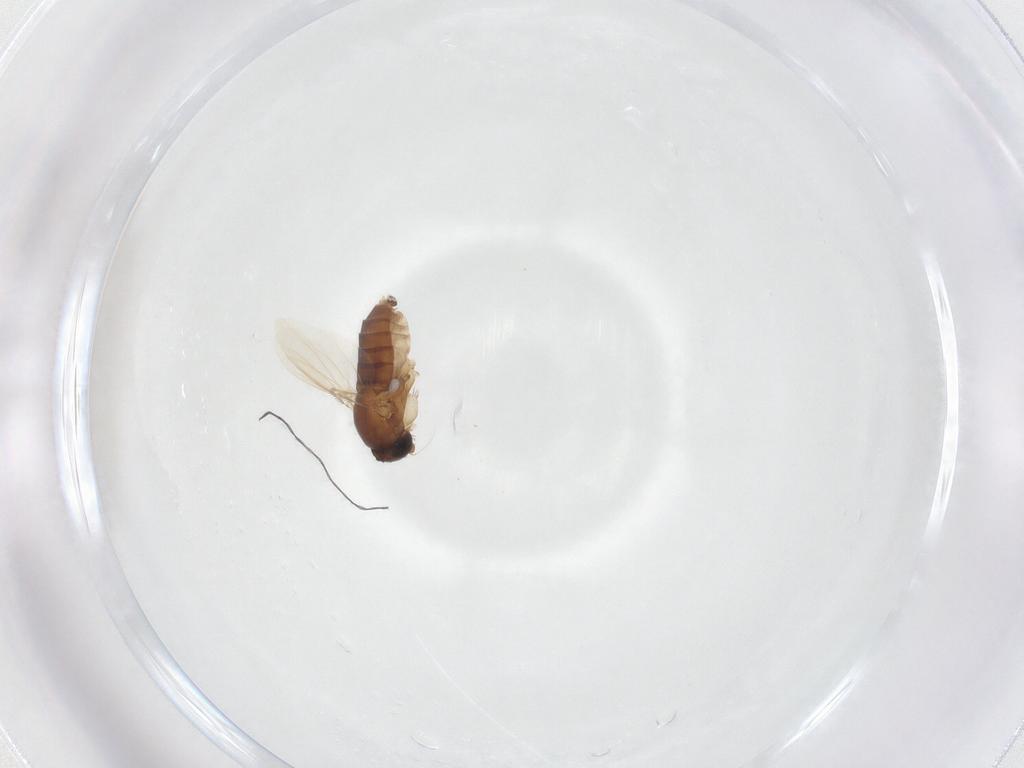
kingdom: Animalia
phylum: Arthropoda
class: Insecta
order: Diptera
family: Phoridae
